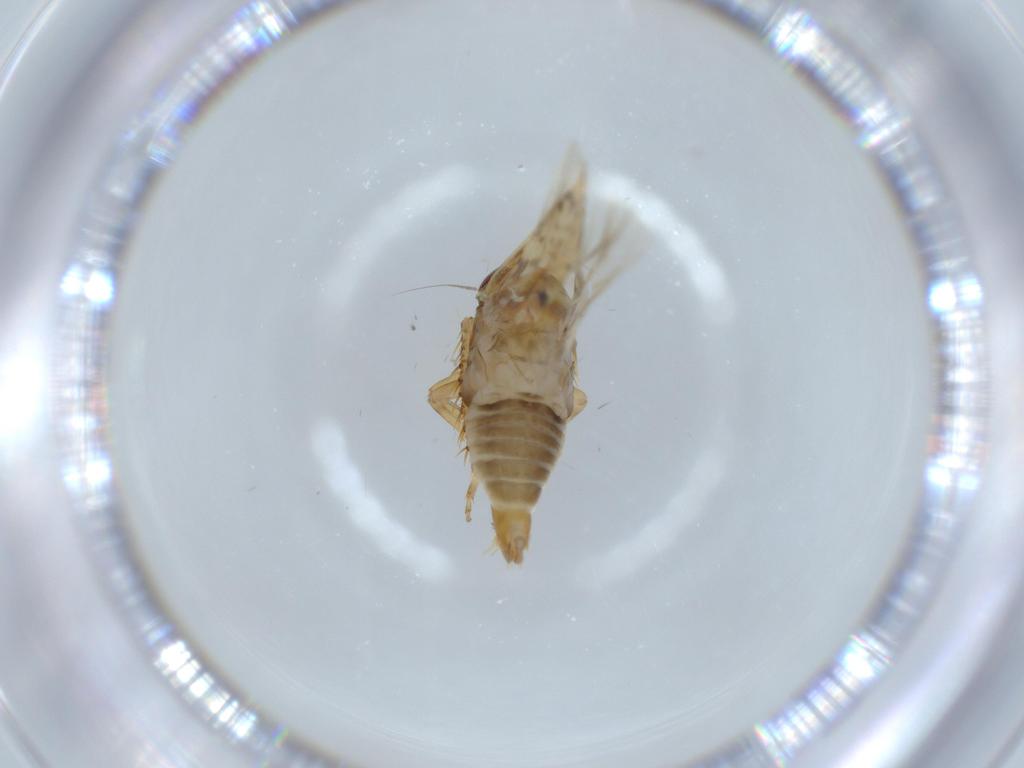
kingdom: Animalia
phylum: Arthropoda
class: Insecta
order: Hemiptera
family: Cicadellidae
